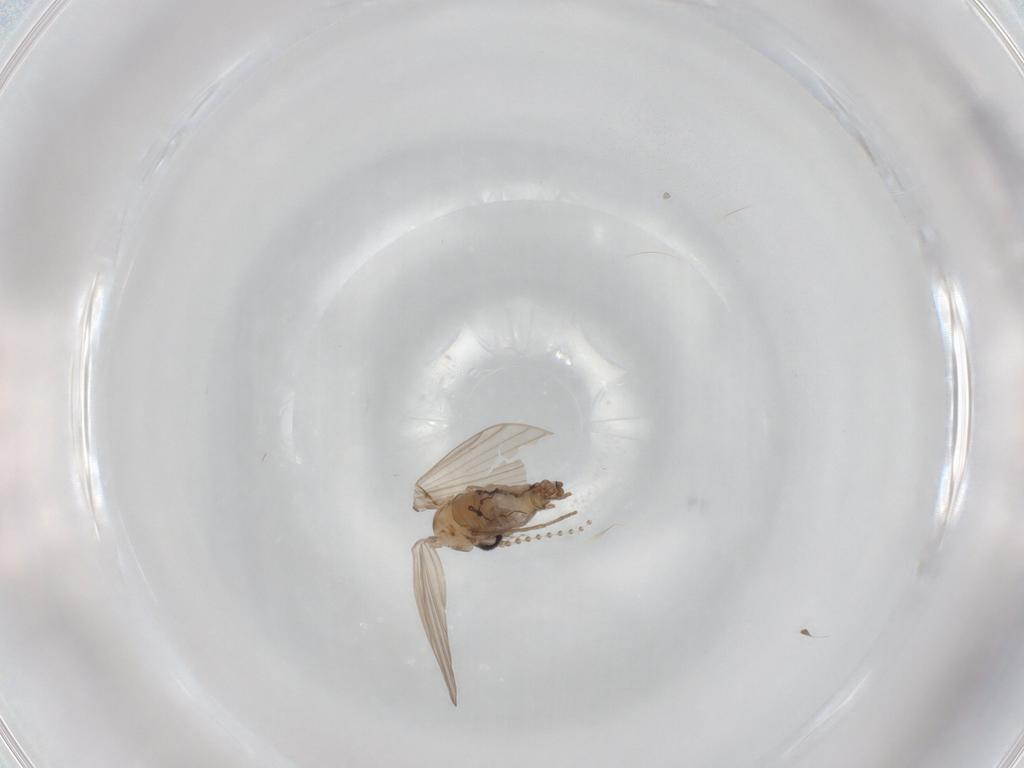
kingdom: Animalia
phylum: Arthropoda
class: Insecta
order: Diptera
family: Psychodidae
